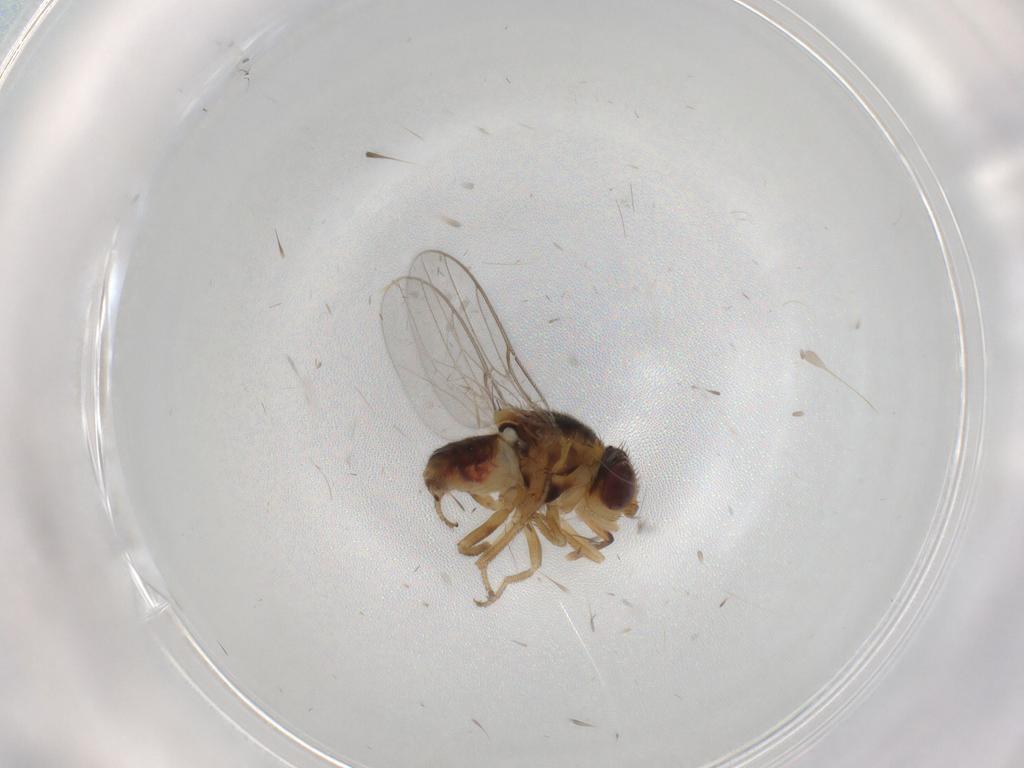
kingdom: Animalia
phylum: Arthropoda
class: Insecta
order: Diptera
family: Chloropidae
